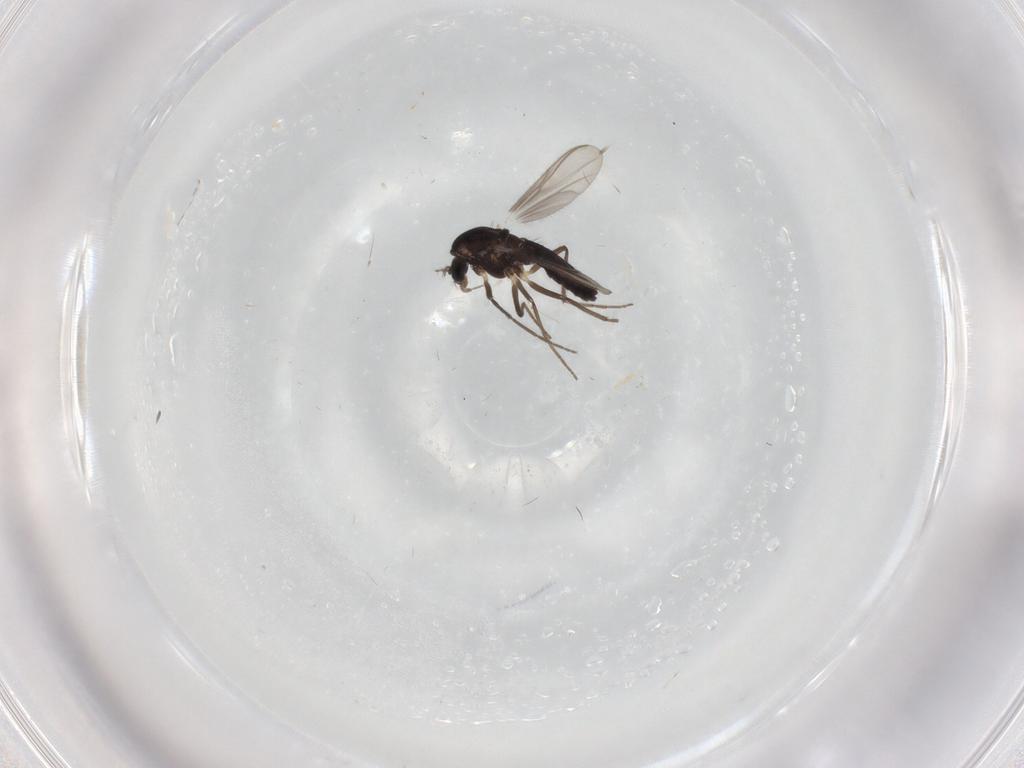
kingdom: Animalia
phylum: Arthropoda
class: Insecta
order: Diptera
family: Chironomidae
